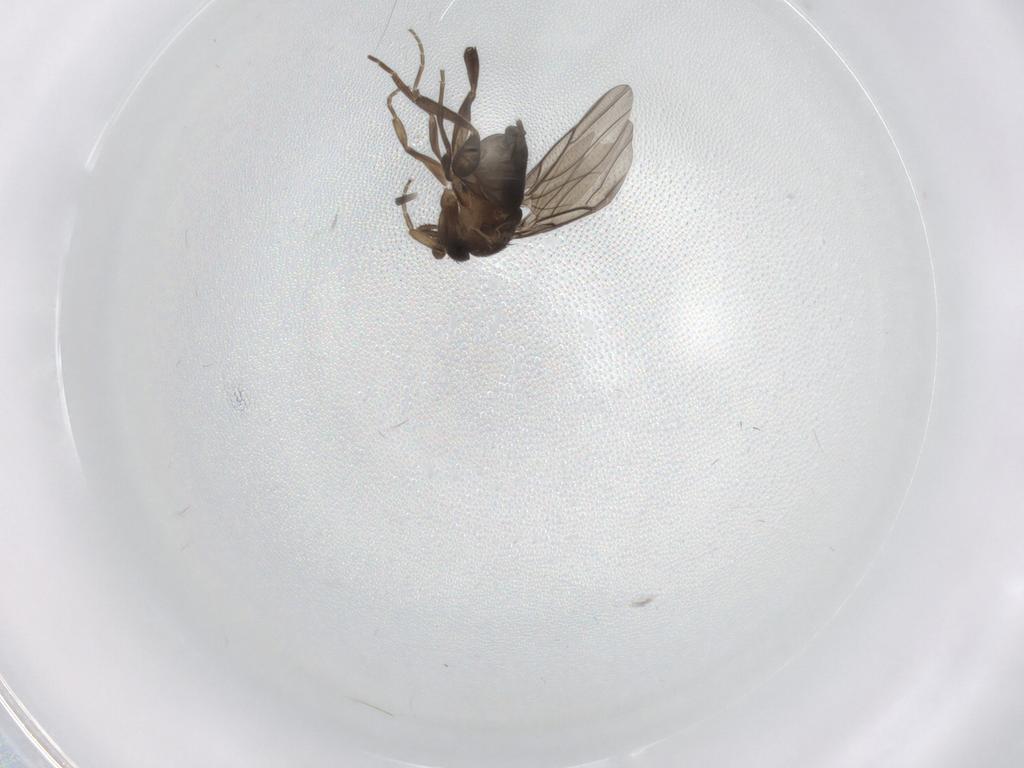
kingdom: Animalia
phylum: Arthropoda
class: Insecta
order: Diptera
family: Phoridae
